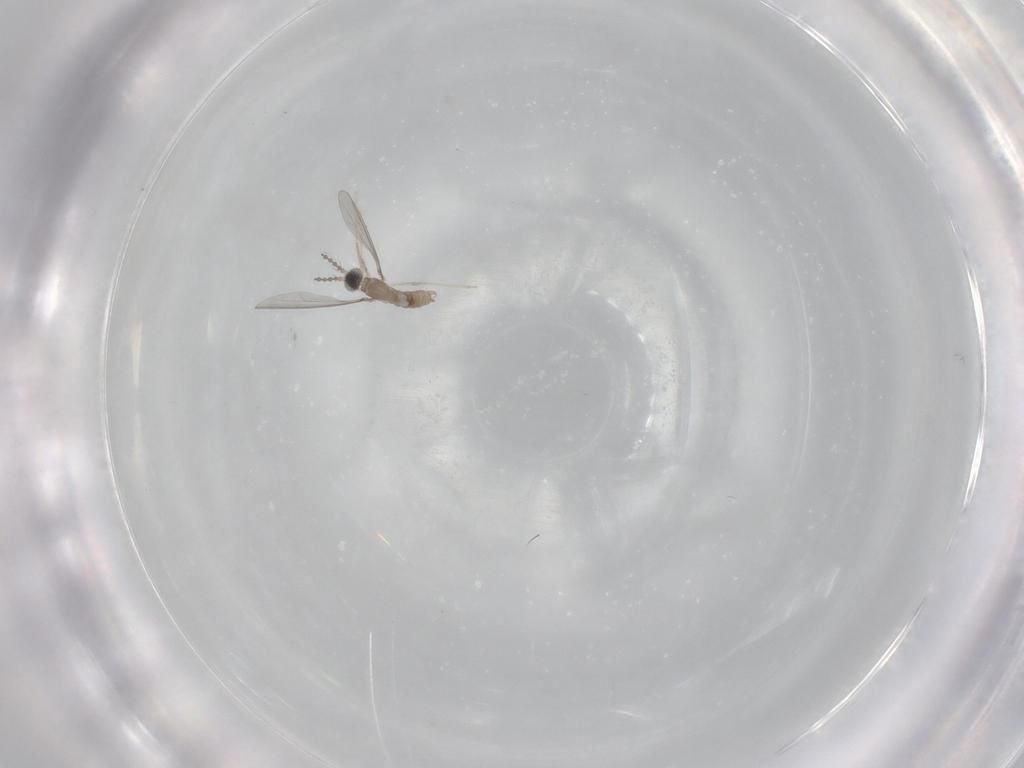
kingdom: Animalia
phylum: Arthropoda
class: Insecta
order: Diptera
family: Cecidomyiidae
